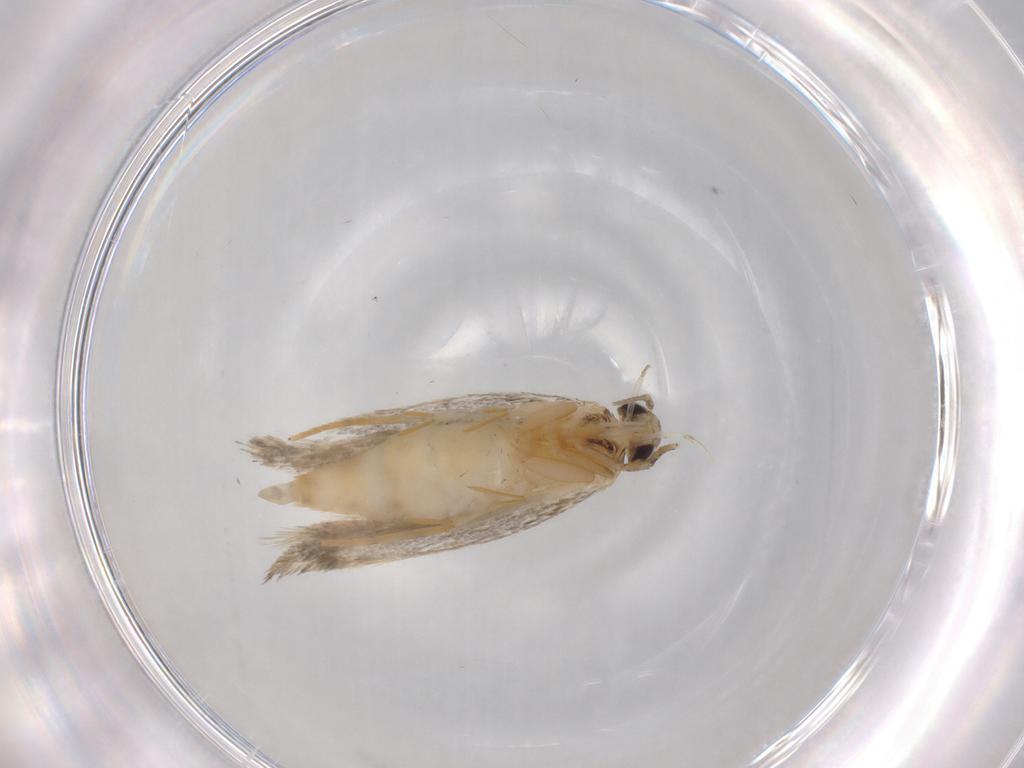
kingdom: Animalia
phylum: Arthropoda
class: Insecta
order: Lepidoptera
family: Autostichidae
